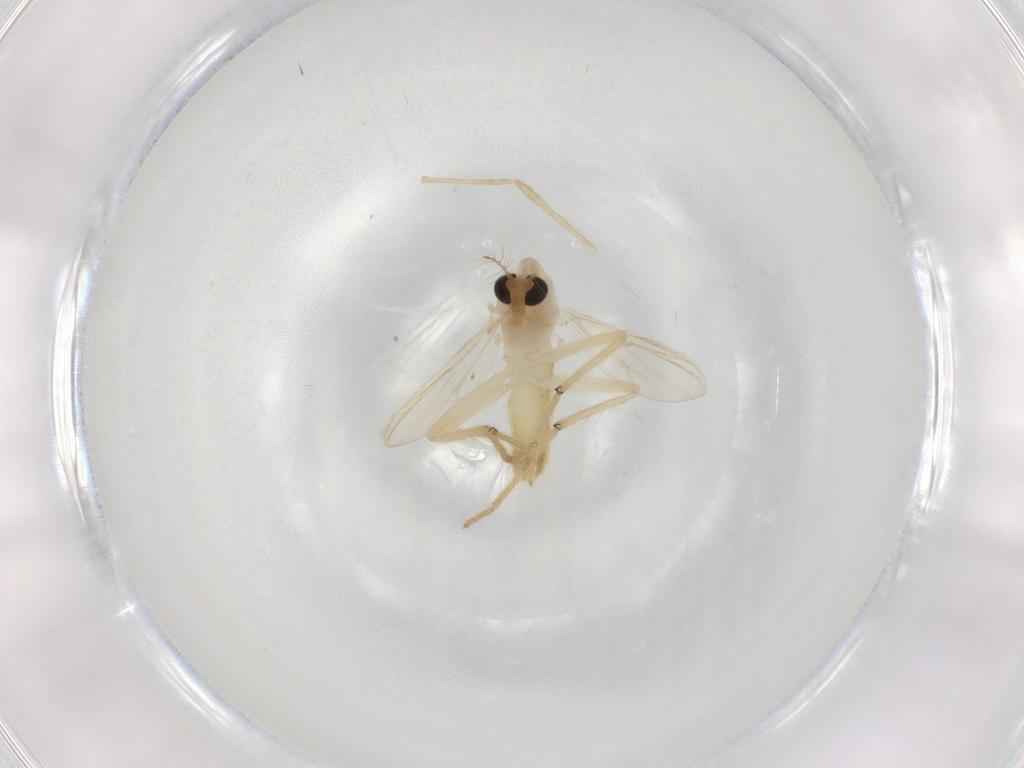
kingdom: Animalia
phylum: Arthropoda
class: Insecta
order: Diptera
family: Chironomidae
